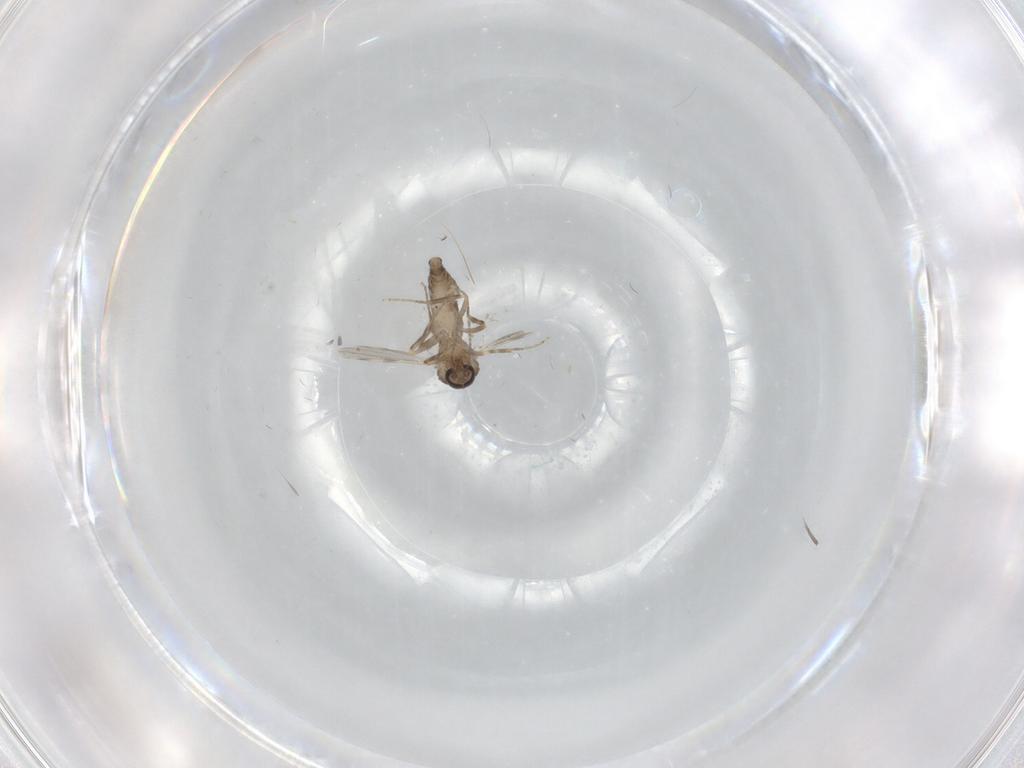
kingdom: Animalia
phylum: Arthropoda
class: Insecta
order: Diptera
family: Ceratopogonidae
